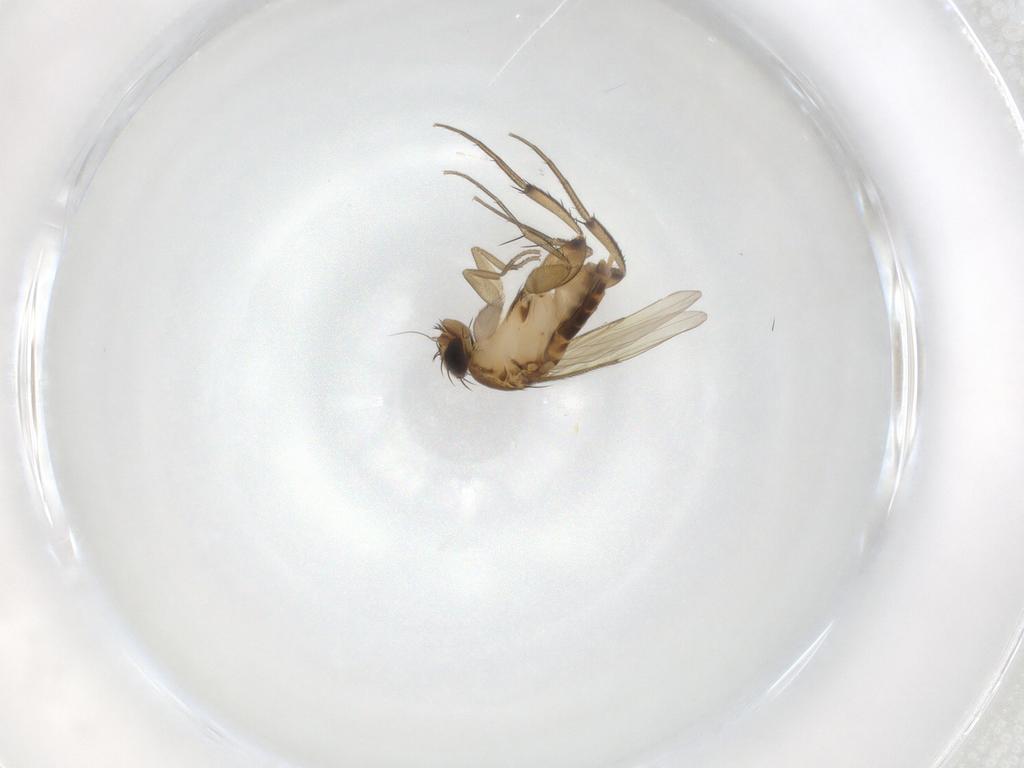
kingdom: Animalia
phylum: Arthropoda
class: Insecta
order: Diptera
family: Phoridae
